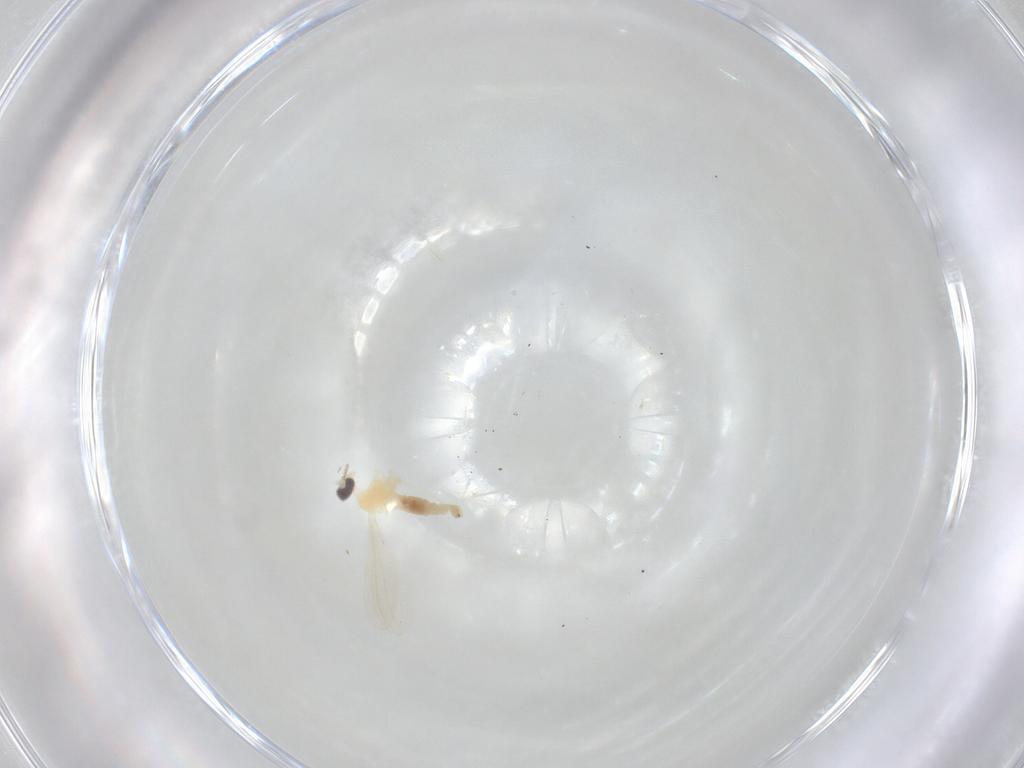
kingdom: Animalia
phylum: Arthropoda
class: Insecta
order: Diptera
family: Cecidomyiidae
